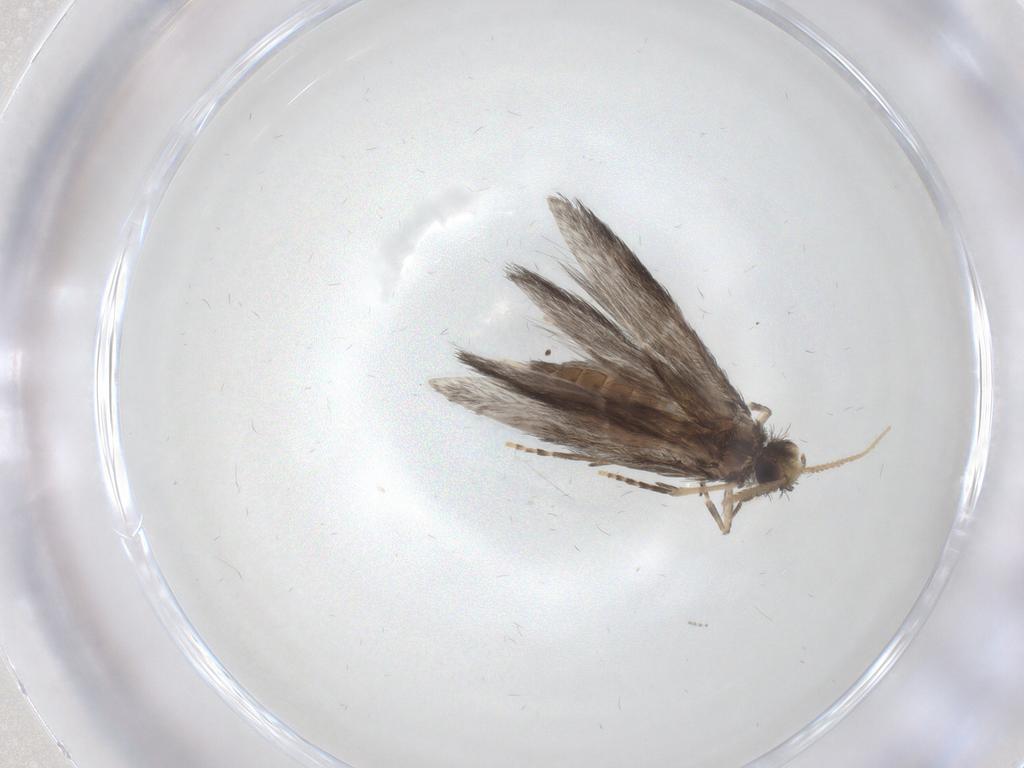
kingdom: Animalia
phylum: Arthropoda
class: Insecta
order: Trichoptera
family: Hydroptilidae
